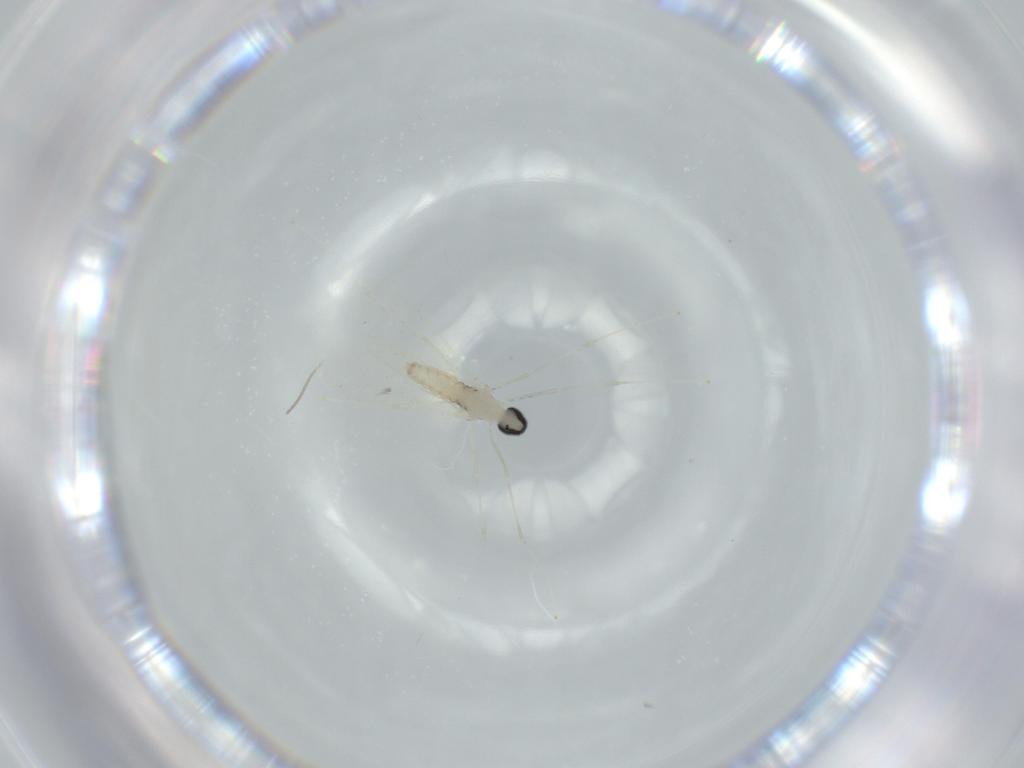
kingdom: Animalia
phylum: Arthropoda
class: Insecta
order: Diptera
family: Cecidomyiidae
